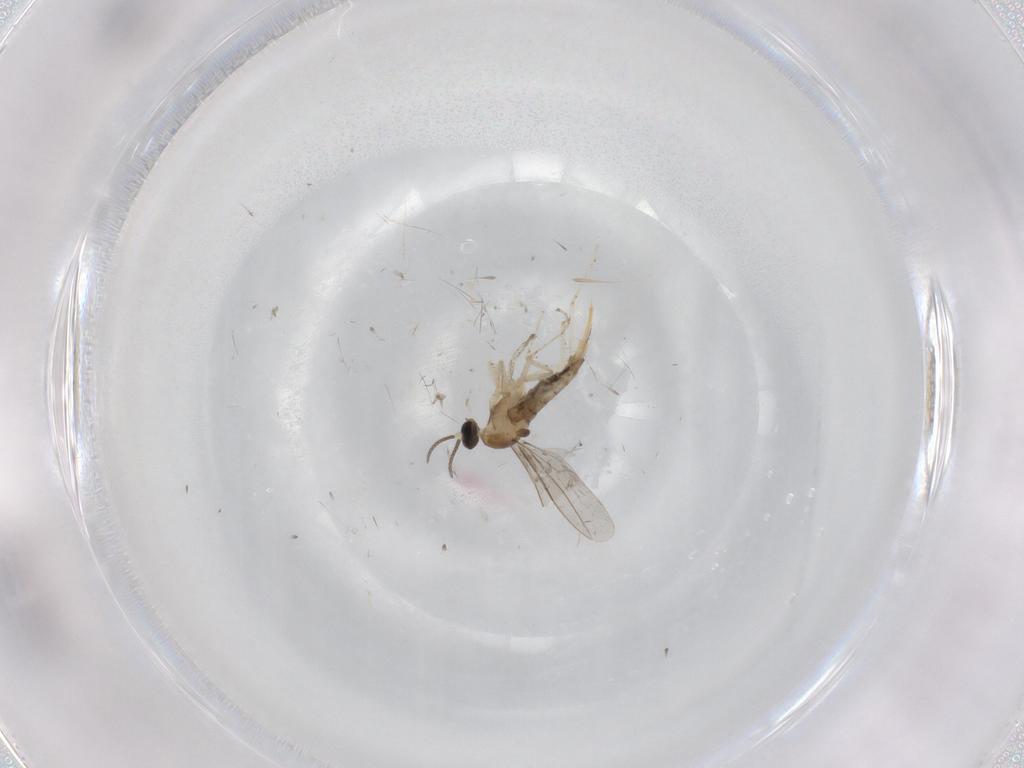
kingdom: Animalia
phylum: Arthropoda
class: Insecta
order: Diptera
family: Cecidomyiidae
